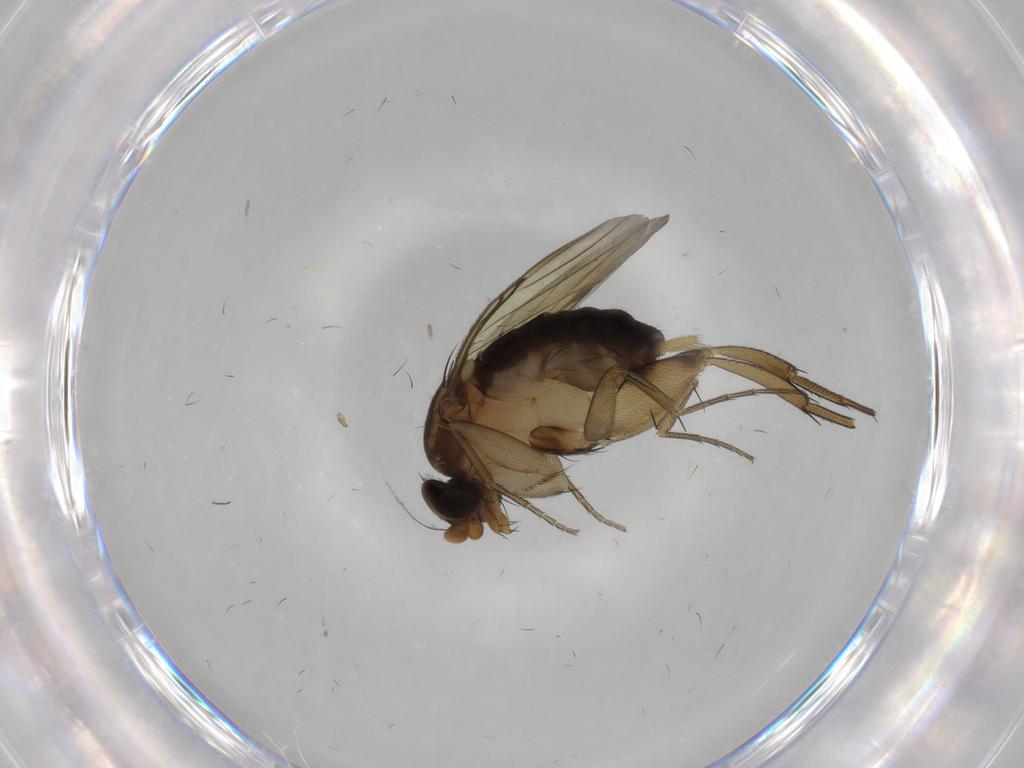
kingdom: Animalia
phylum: Arthropoda
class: Insecta
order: Diptera
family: Phoridae
